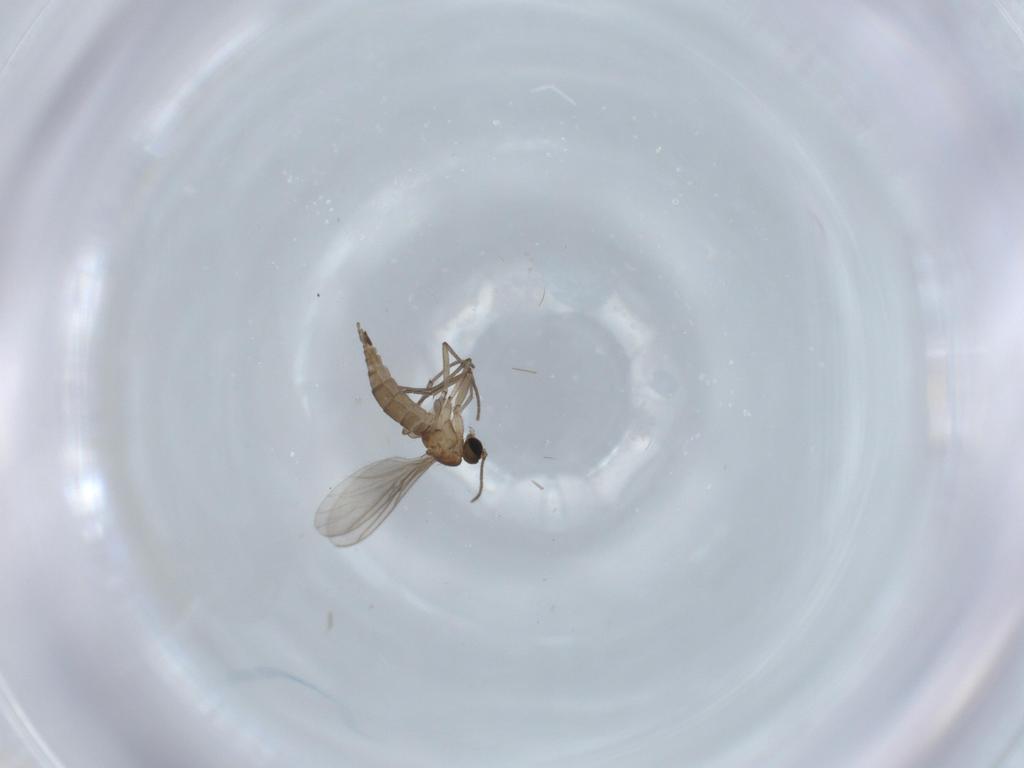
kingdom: Animalia
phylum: Arthropoda
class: Insecta
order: Diptera
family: Sciaridae
